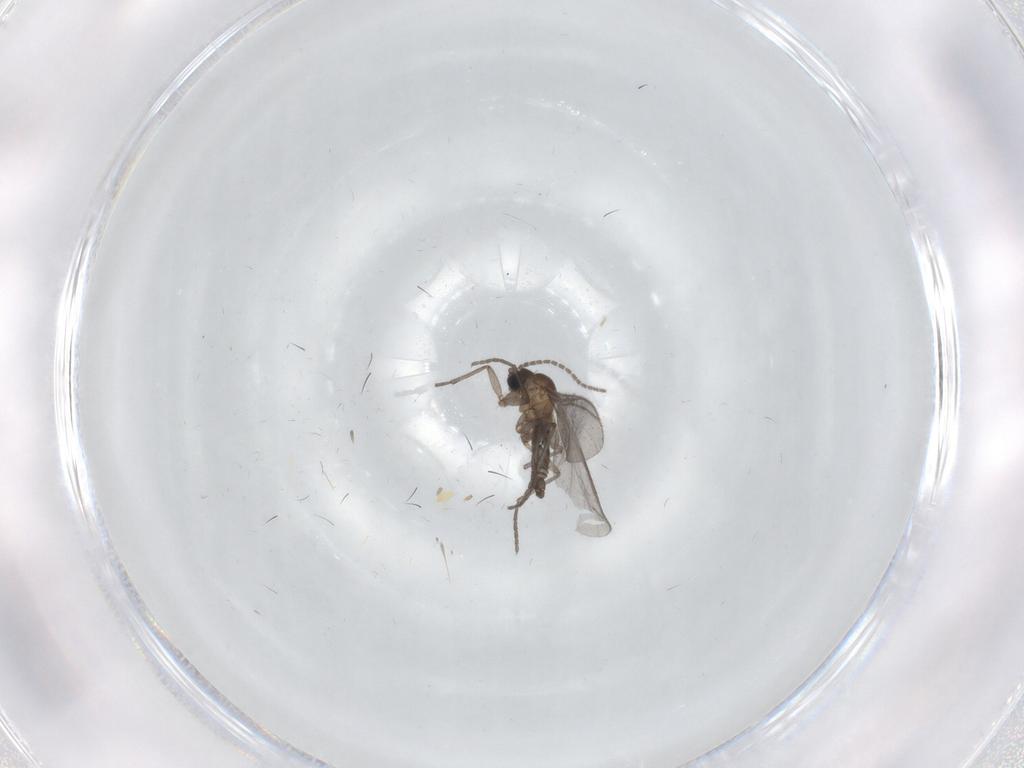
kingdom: Animalia
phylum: Arthropoda
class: Insecta
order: Diptera
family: Sciaridae
